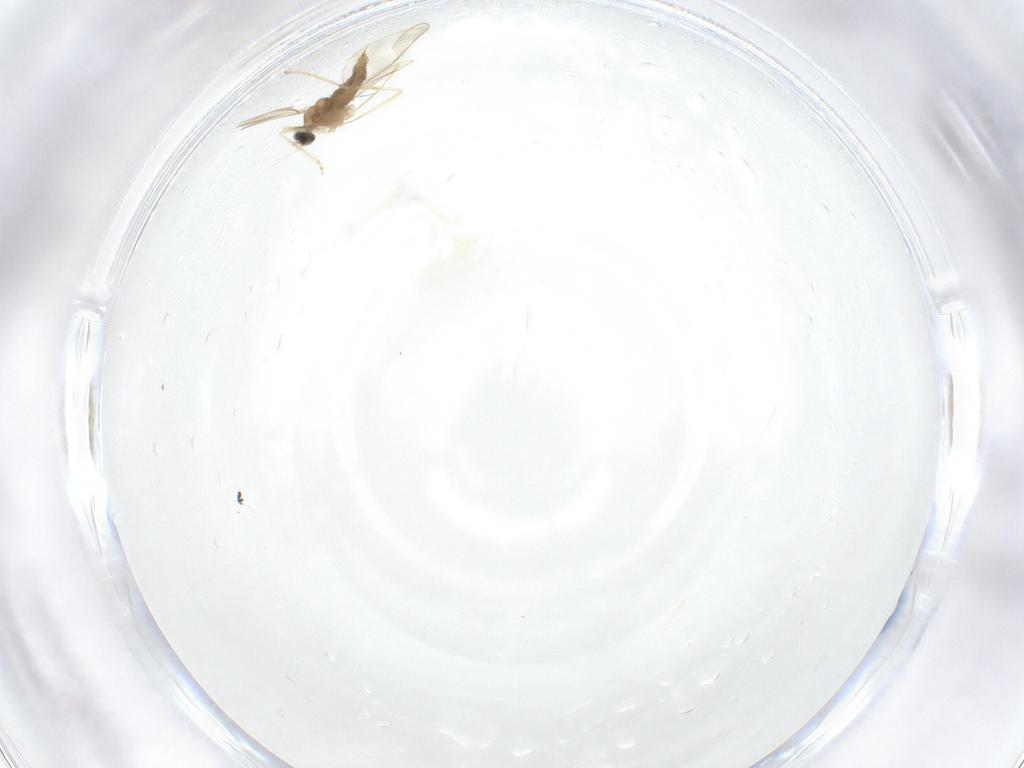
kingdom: Animalia
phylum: Arthropoda
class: Insecta
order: Diptera
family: Cecidomyiidae
